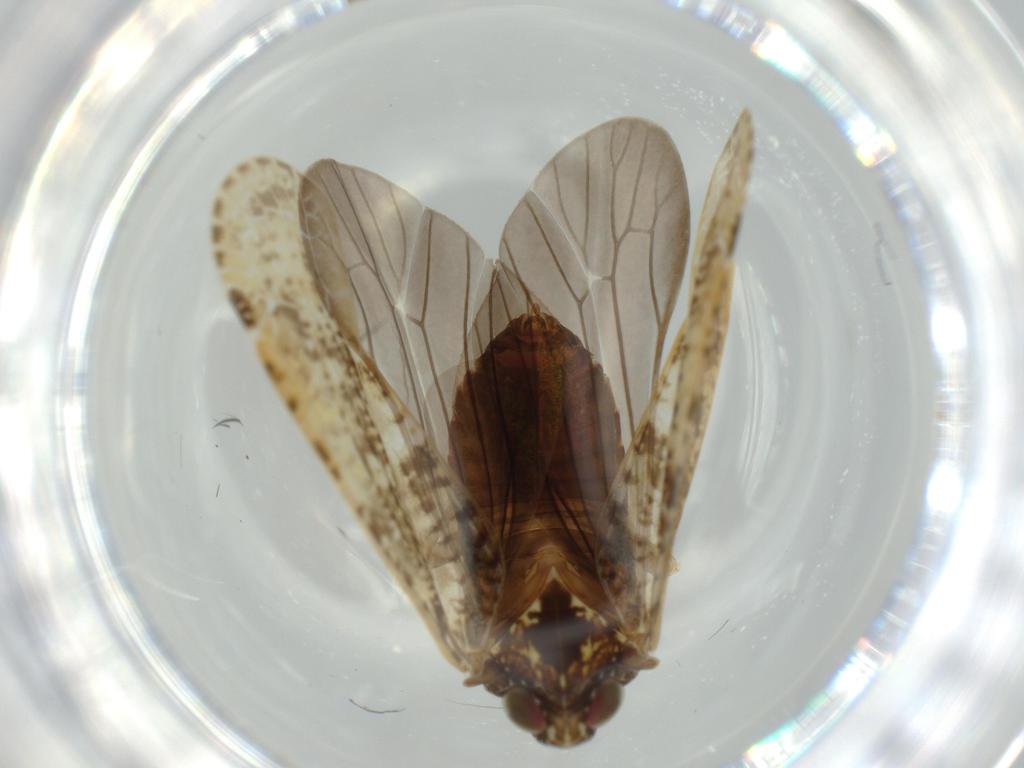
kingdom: Animalia
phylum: Arthropoda
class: Insecta
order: Hemiptera
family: Achilidae
